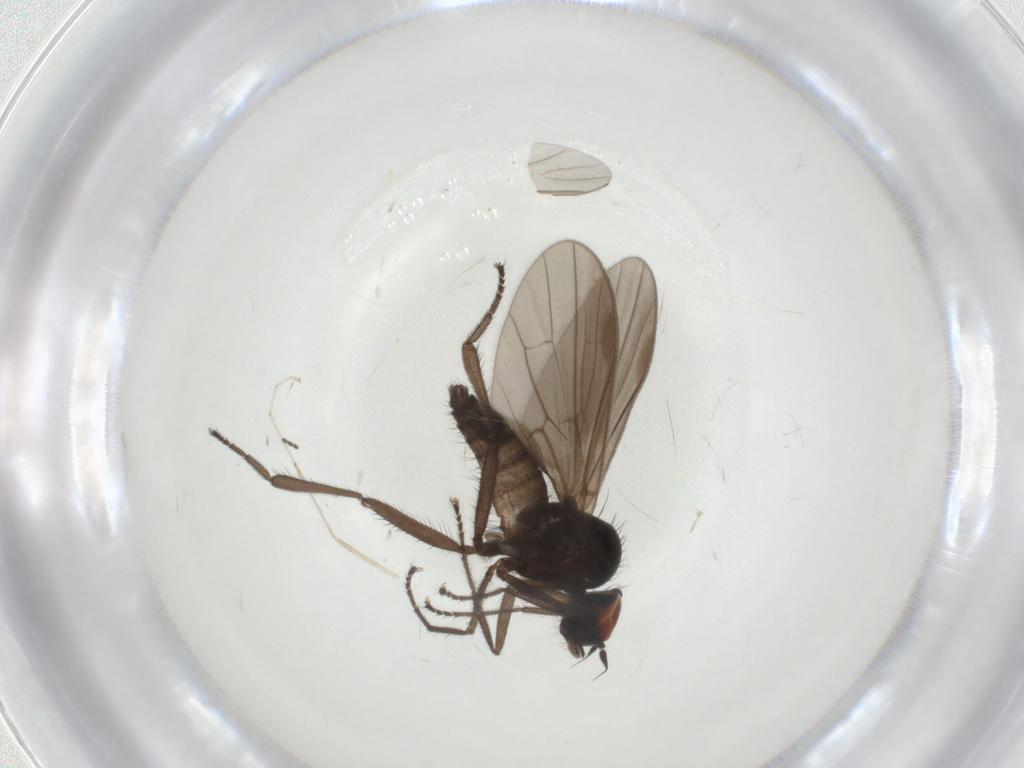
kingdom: Animalia
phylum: Arthropoda
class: Insecta
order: Diptera
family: Hybotidae
